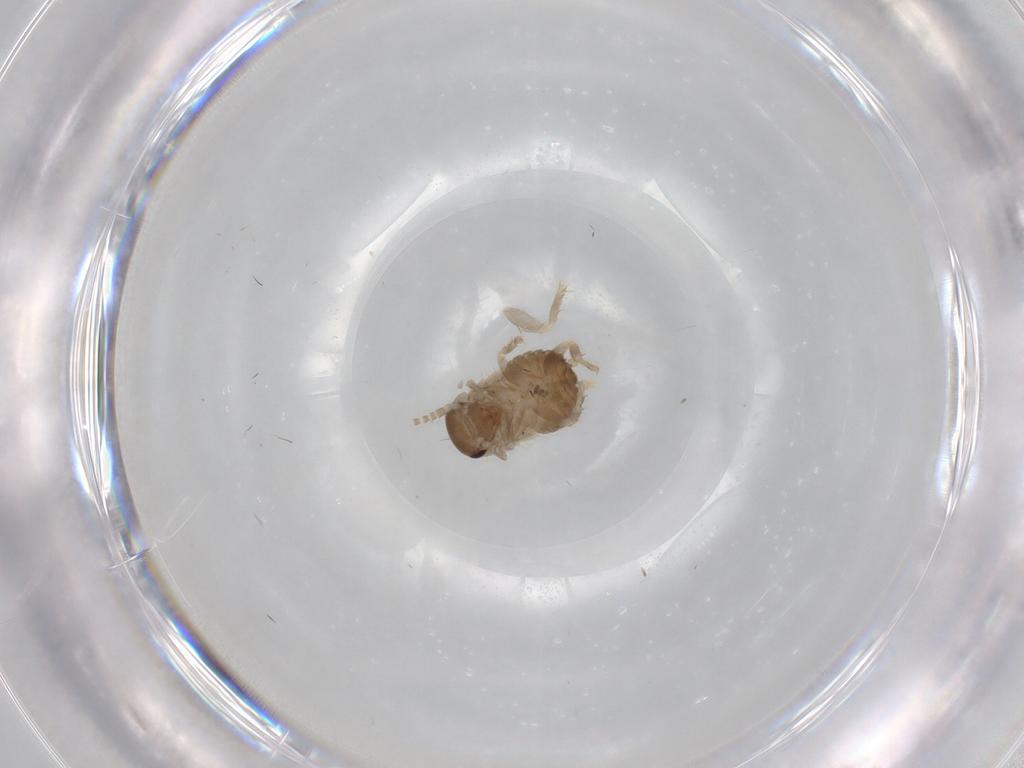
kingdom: Animalia
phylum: Arthropoda
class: Insecta
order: Blattodea
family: Ectobiidae
